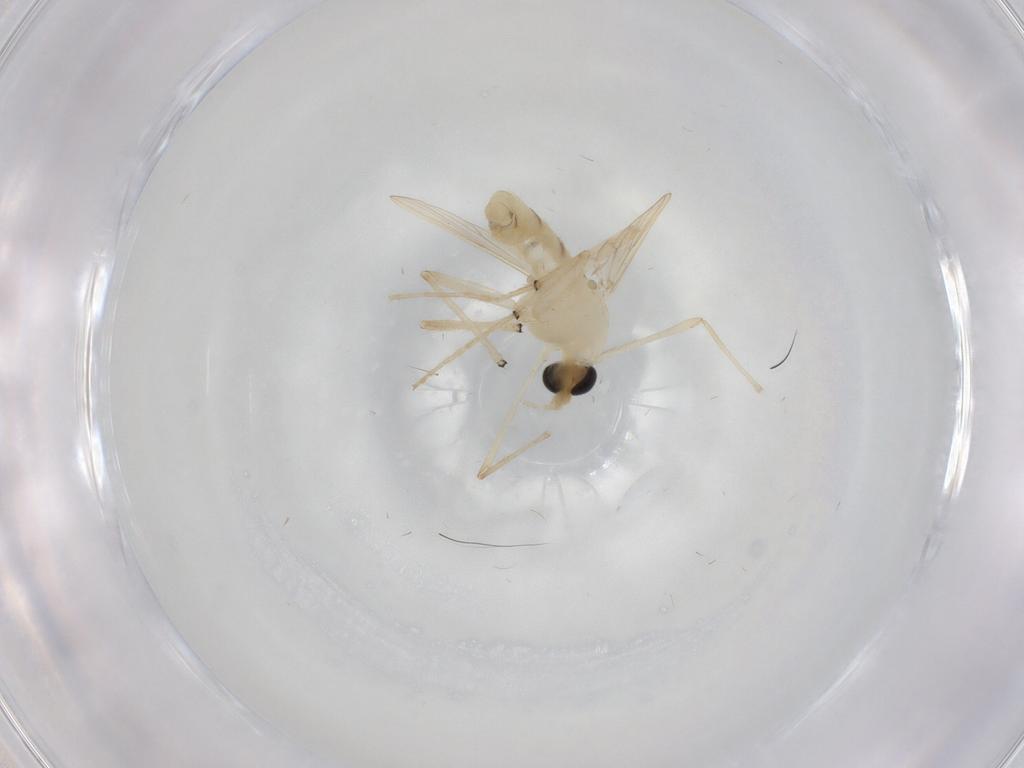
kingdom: Animalia
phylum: Arthropoda
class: Insecta
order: Diptera
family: Chironomidae
